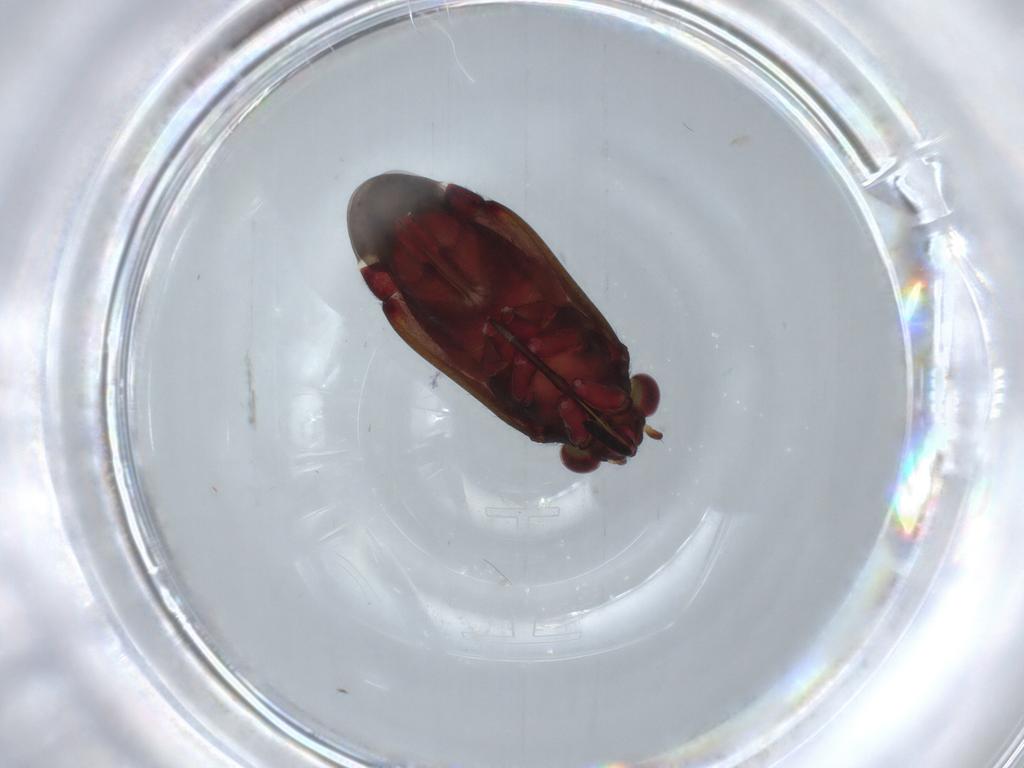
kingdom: Animalia
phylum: Arthropoda
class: Insecta
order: Hemiptera
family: Miridae
